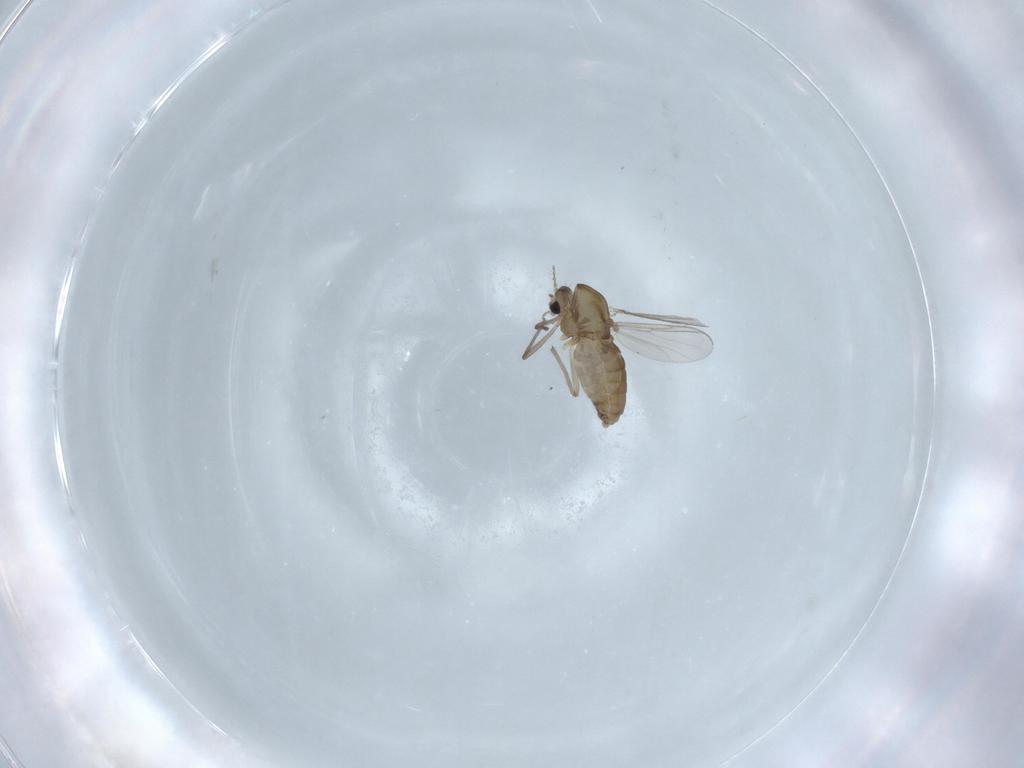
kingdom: Animalia
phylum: Arthropoda
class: Insecta
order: Diptera
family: Chironomidae
